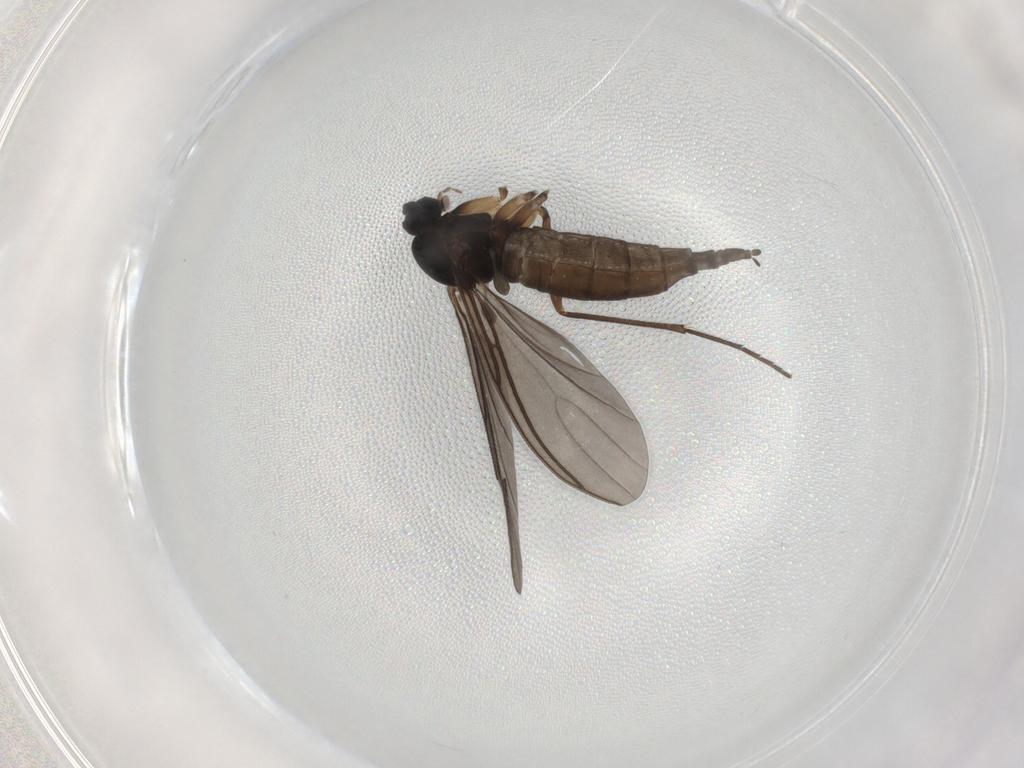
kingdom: Animalia
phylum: Arthropoda
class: Insecta
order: Diptera
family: Sciaridae
